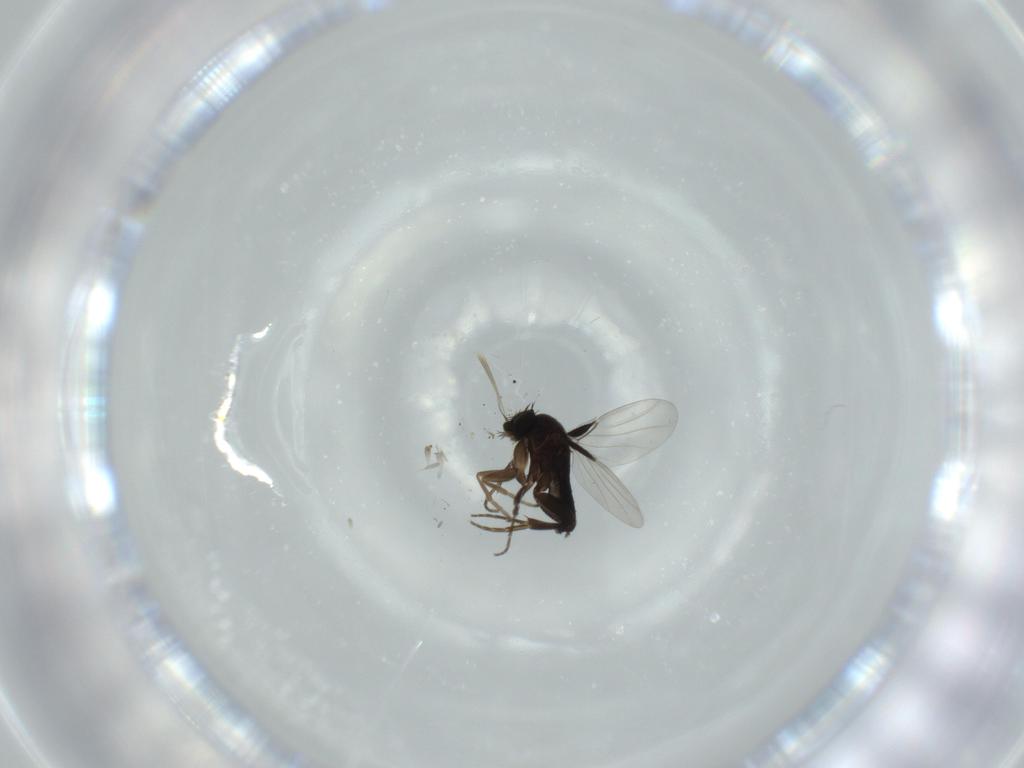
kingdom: Animalia
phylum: Arthropoda
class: Insecta
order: Diptera
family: Phoridae
